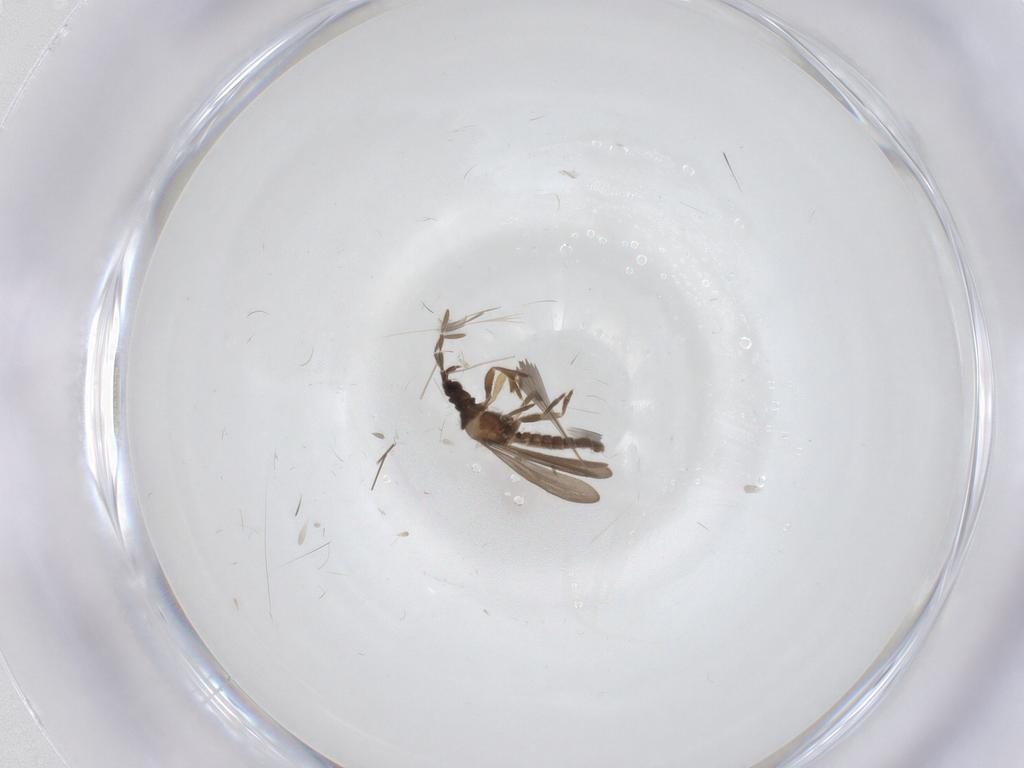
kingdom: Animalia
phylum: Arthropoda
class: Insecta
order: Hemiptera
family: Enicocephalidae
